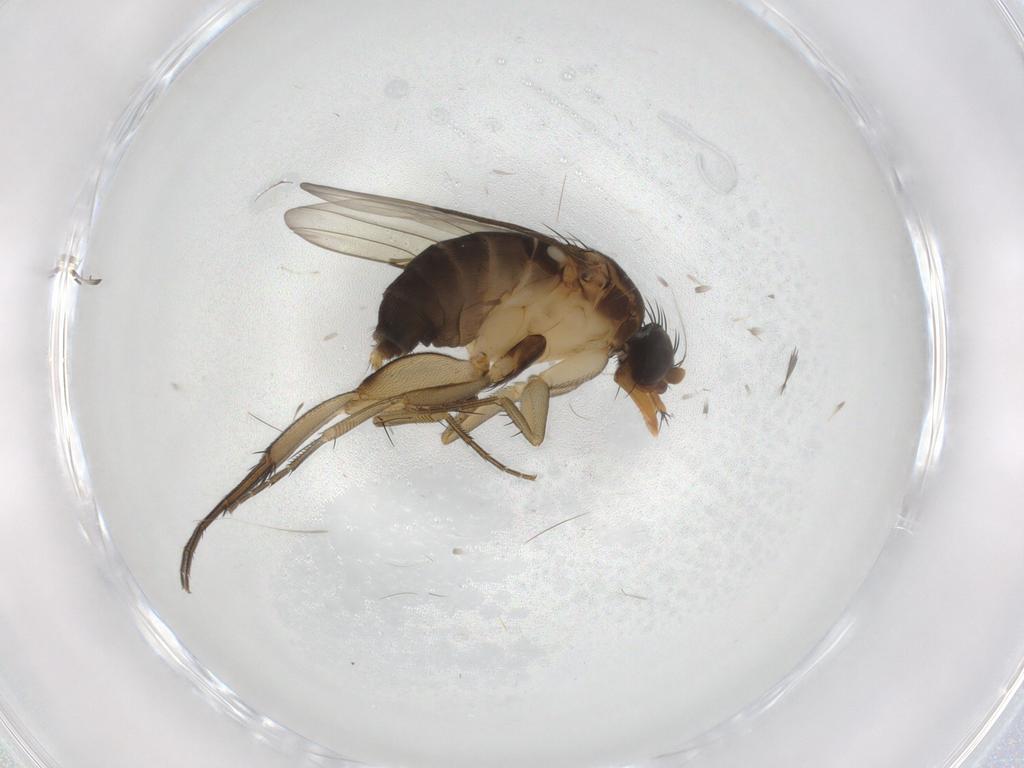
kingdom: Animalia
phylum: Arthropoda
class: Insecta
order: Diptera
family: Phoridae
